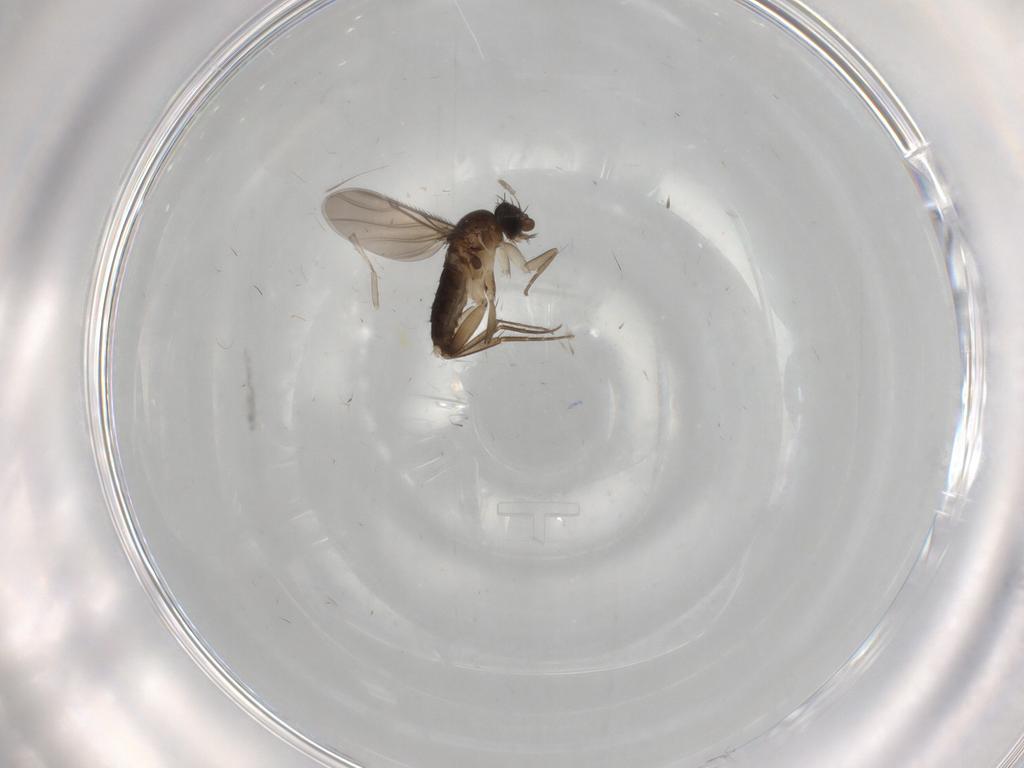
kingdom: Animalia
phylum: Arthropoda
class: Insecta
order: Diptera
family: Phoridae
